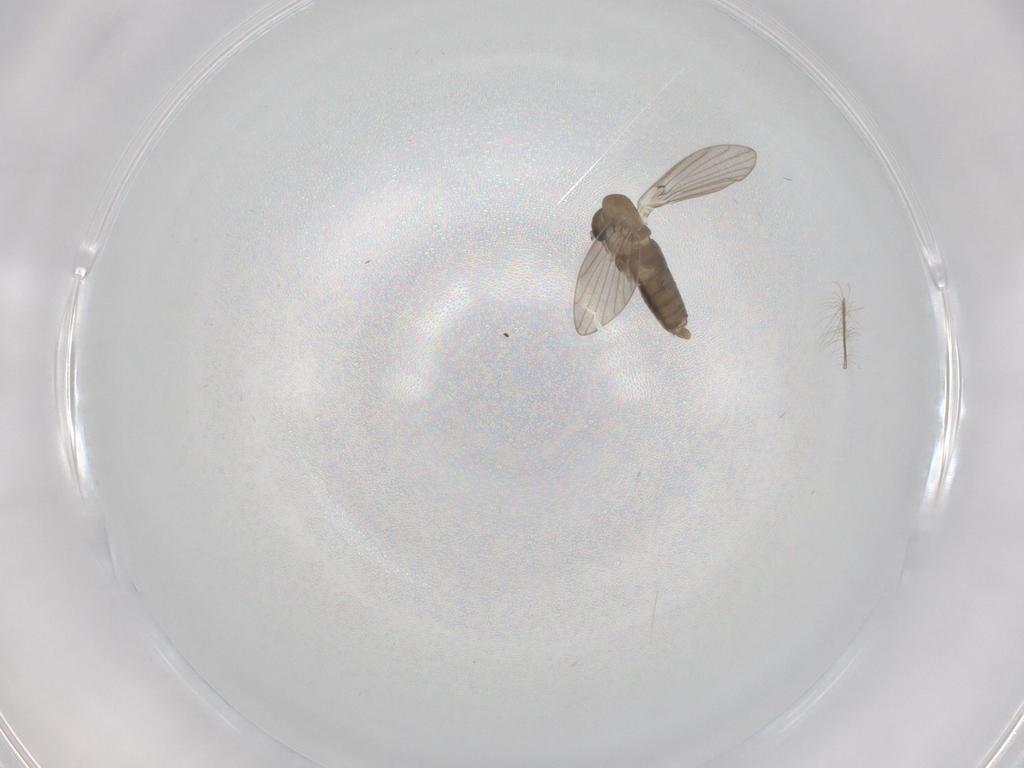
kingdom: Animalia
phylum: Arthropoda
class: Insecta
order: Diptera
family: Psychodidae
